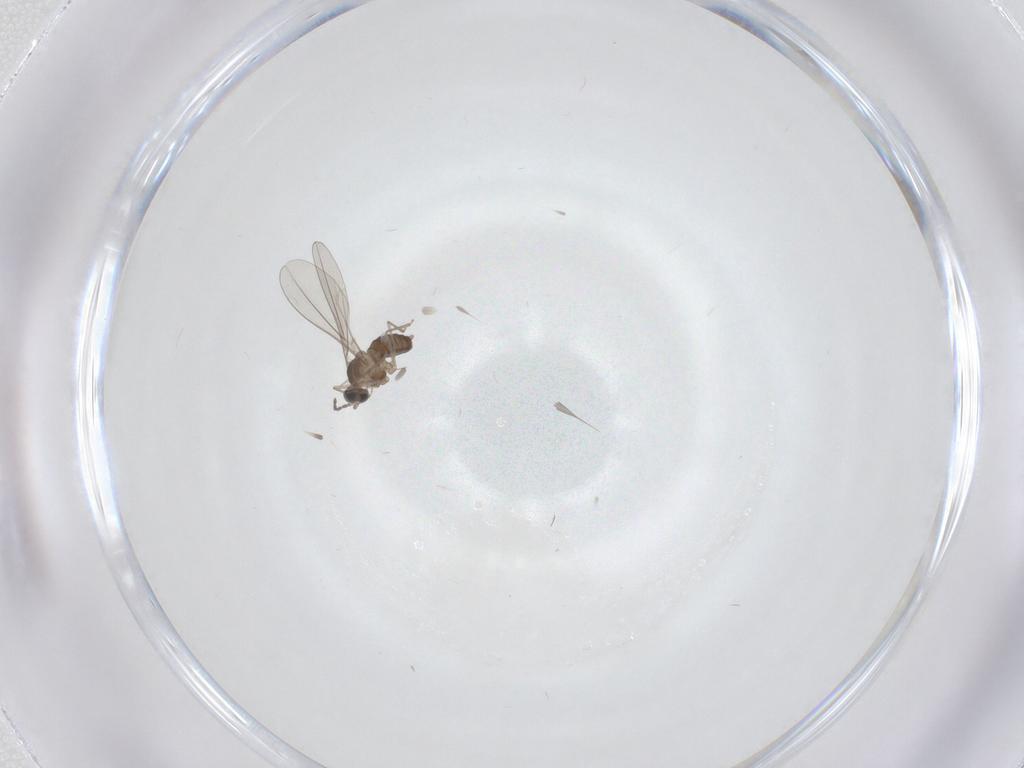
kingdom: Animalia
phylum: Arthropoda
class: Insecta
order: Diptera
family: Cecidomyiidae
